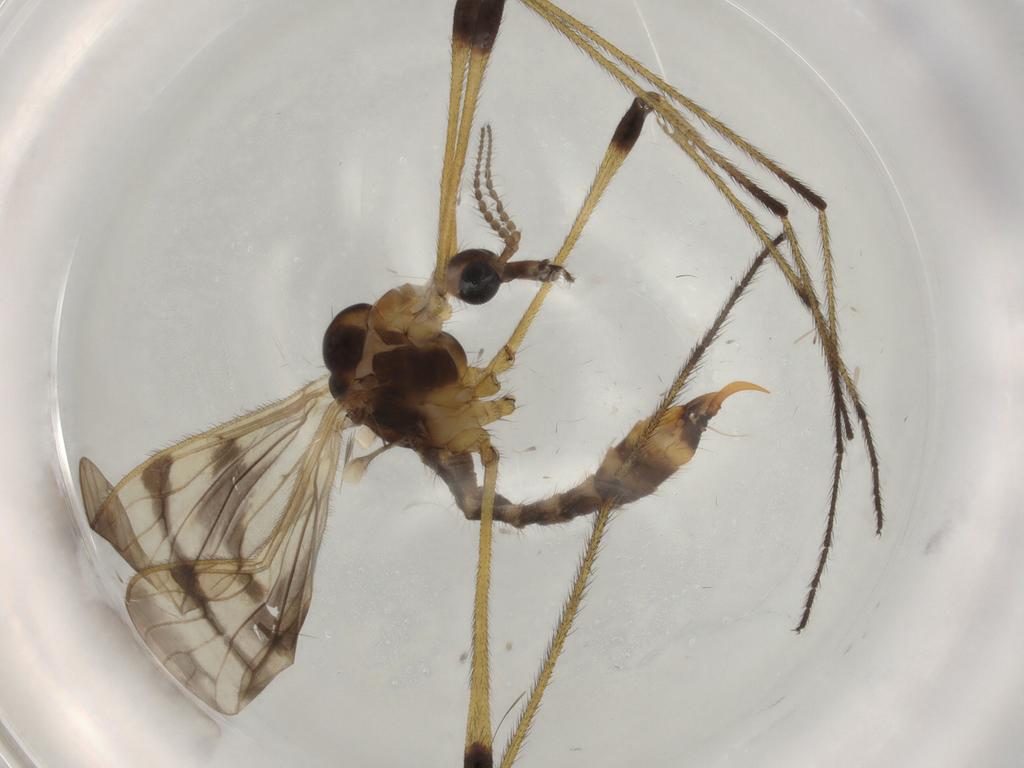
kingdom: Animalia
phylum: Arthropoda
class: Insecta
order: Diptera
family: Limoniidae
